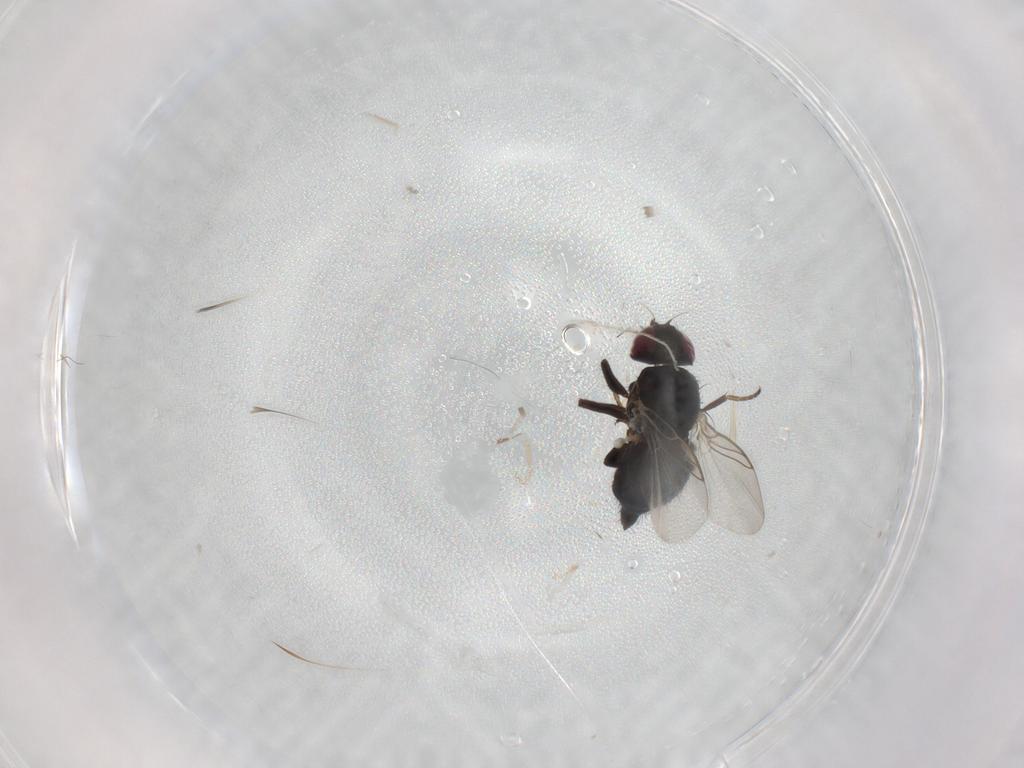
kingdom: Animalia
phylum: Arthropoda
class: Insecta
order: Diptera
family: Agromyzidae
